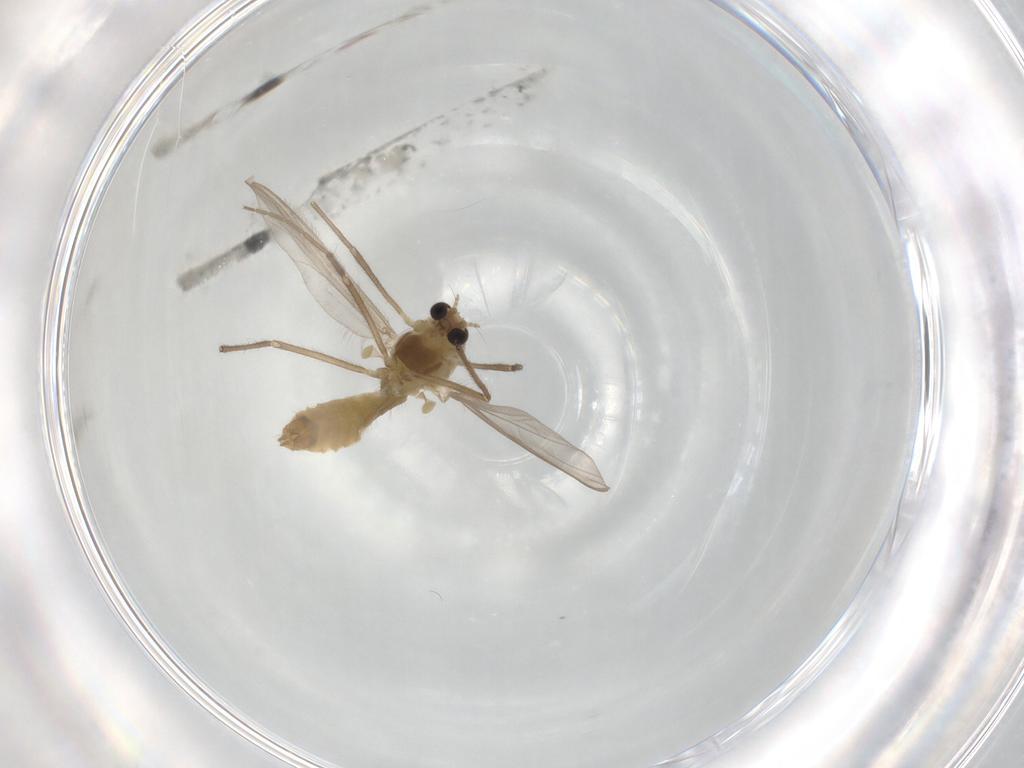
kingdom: Animalia
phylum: Arthropoda
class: Insecta
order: Diptera
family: Chironomidae
